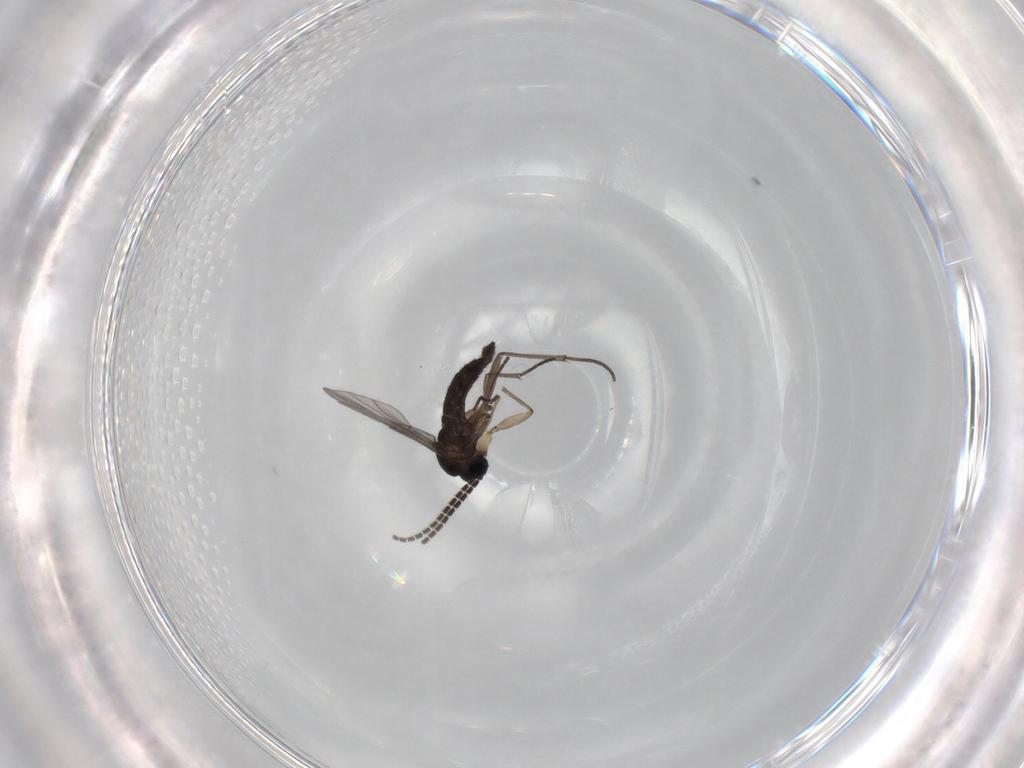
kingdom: Animalia
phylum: Arthropoda
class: Insecta
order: Diptera
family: Sciaridae
